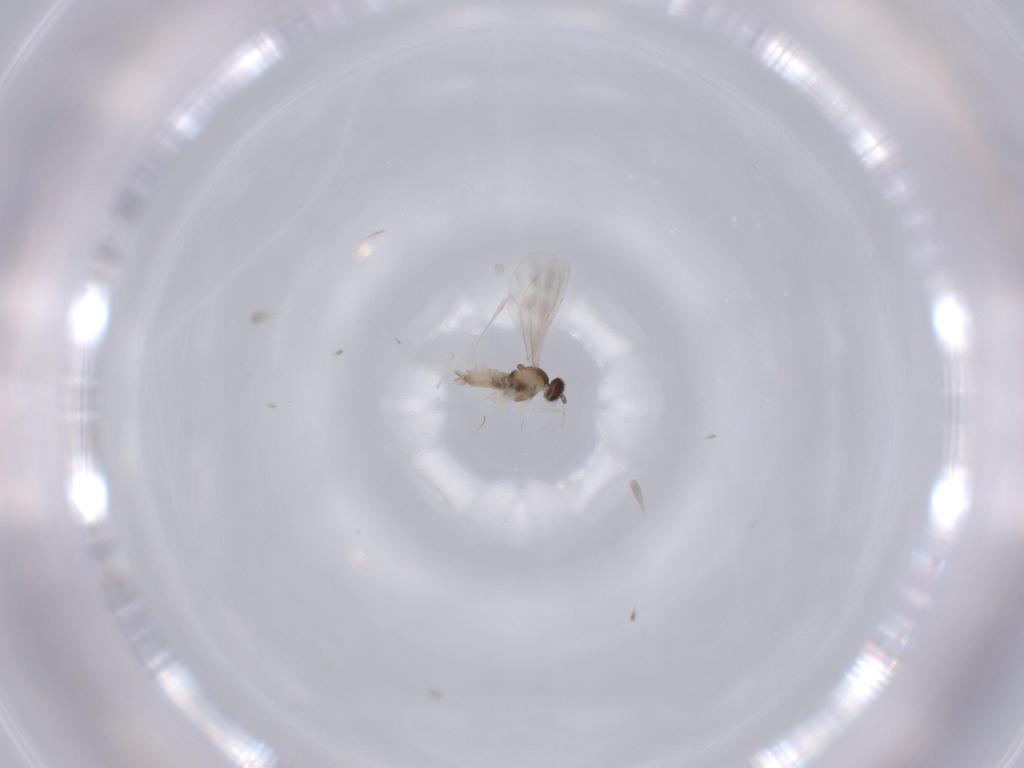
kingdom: Animalia
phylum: Arthropoda
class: Insecta
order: Diptera
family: Cecidomyiidae
